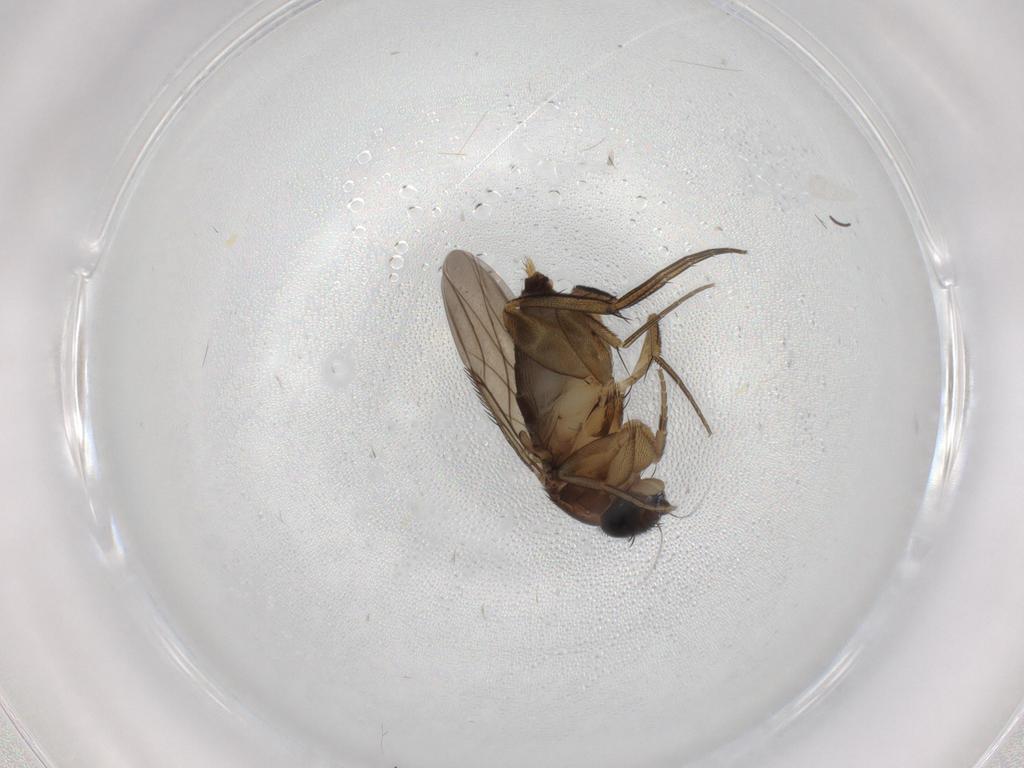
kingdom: Animalia
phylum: Arthropoda
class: Insecta
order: Diptera
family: Phoridae
